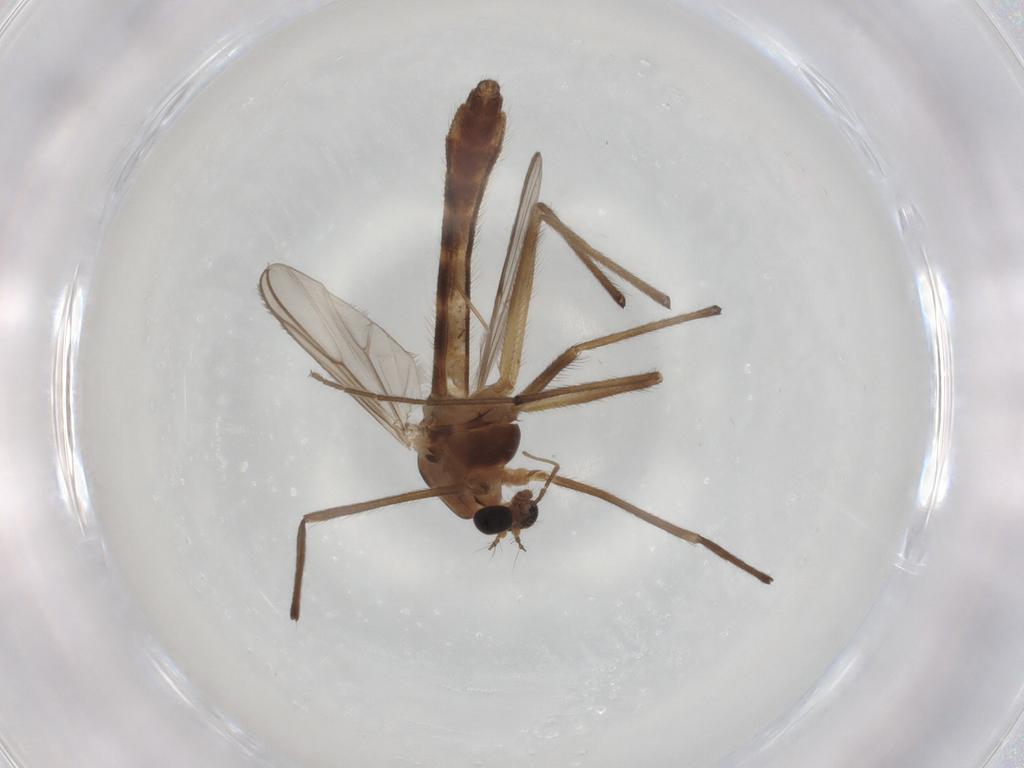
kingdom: Animalia
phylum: Arthropoda
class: Insecta
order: Diptera
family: Chironomidae
